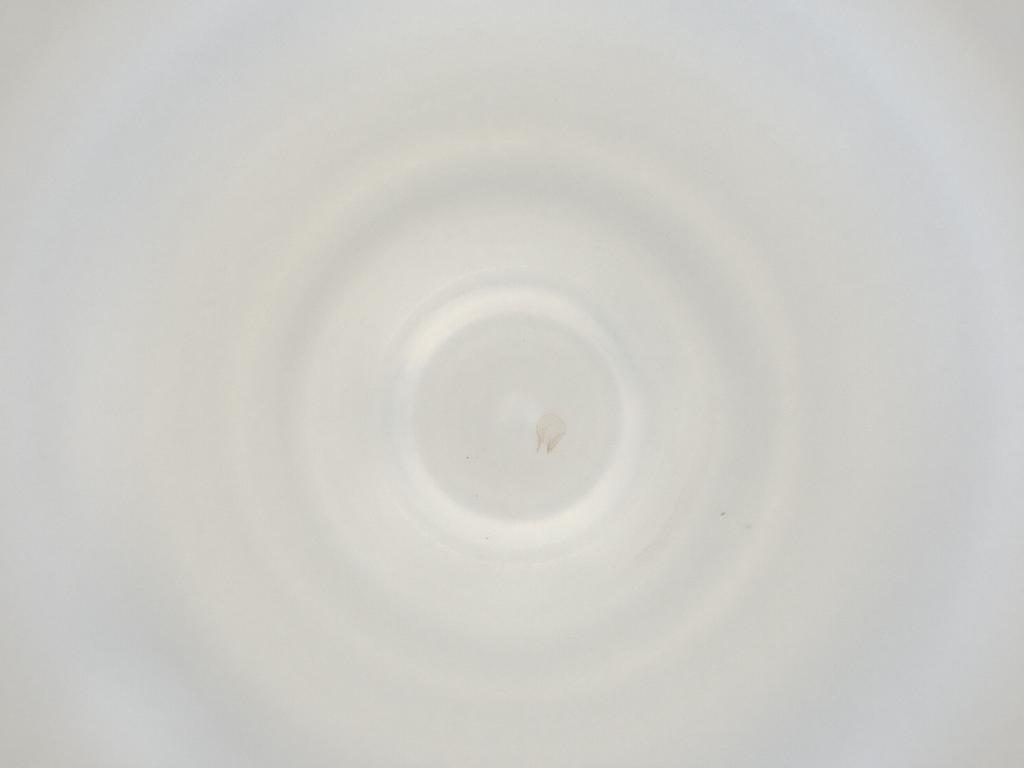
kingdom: Animalia
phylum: Arthropoda
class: Insecta
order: Diptera
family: Cecidomyiidae
